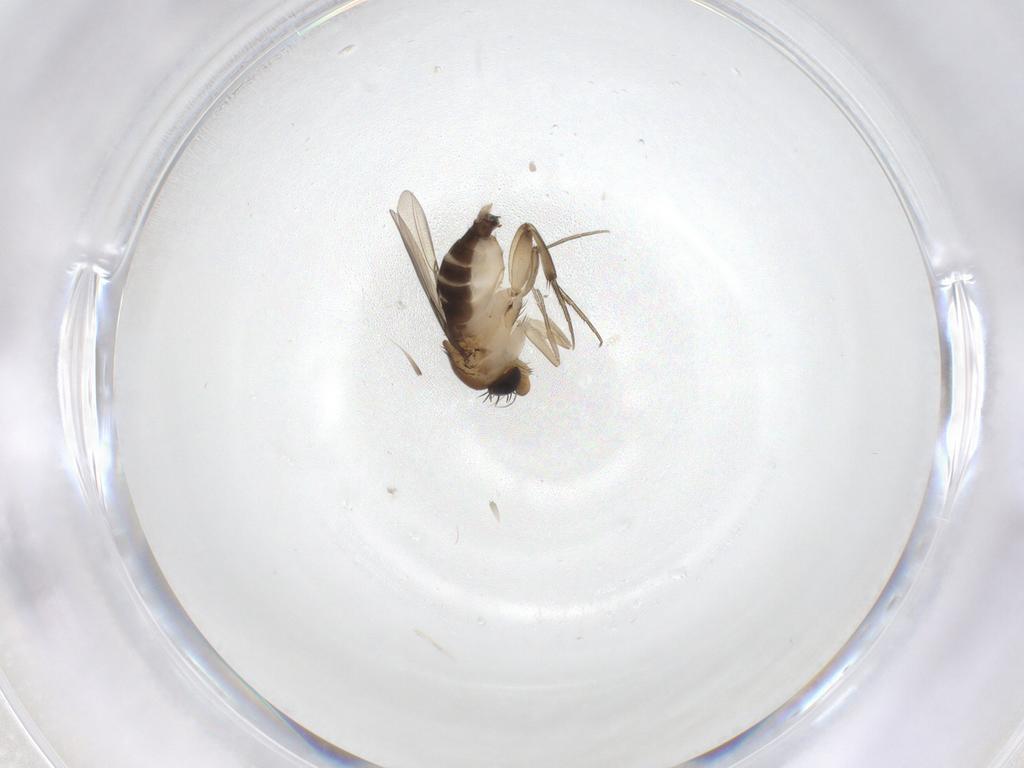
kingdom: Animalia
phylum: Arthropoda
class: Insecta
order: Diptera
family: Phoridae
